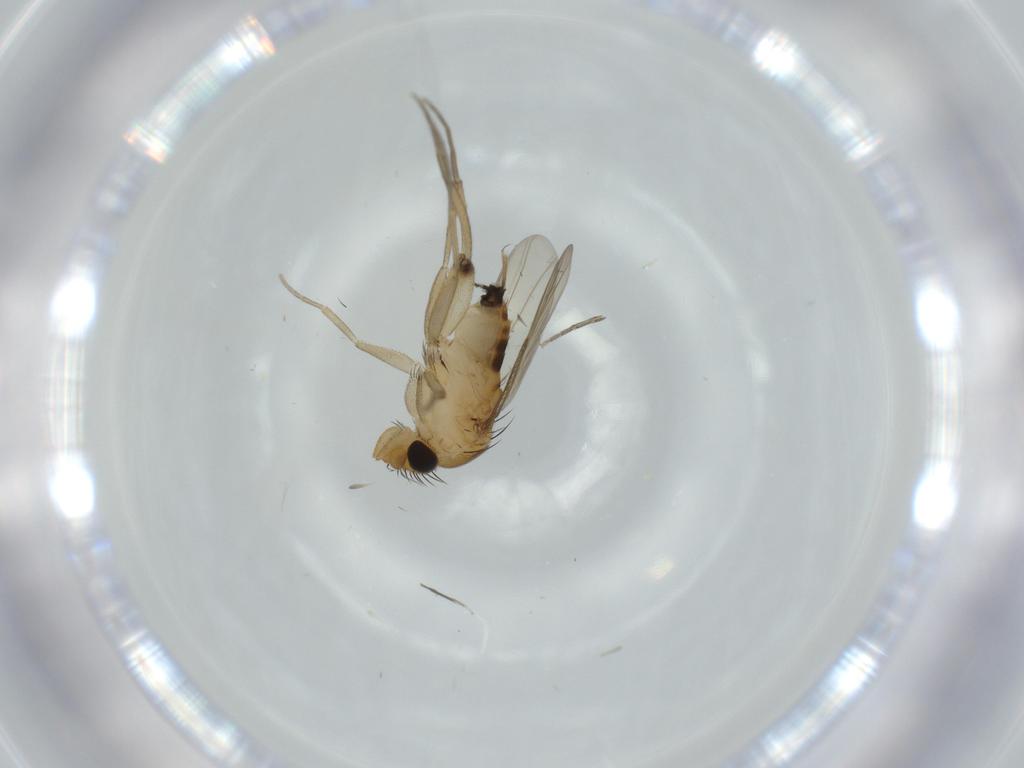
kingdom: Animalia
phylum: Arthropoda
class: Insecta
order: Diptera
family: Phoridae
